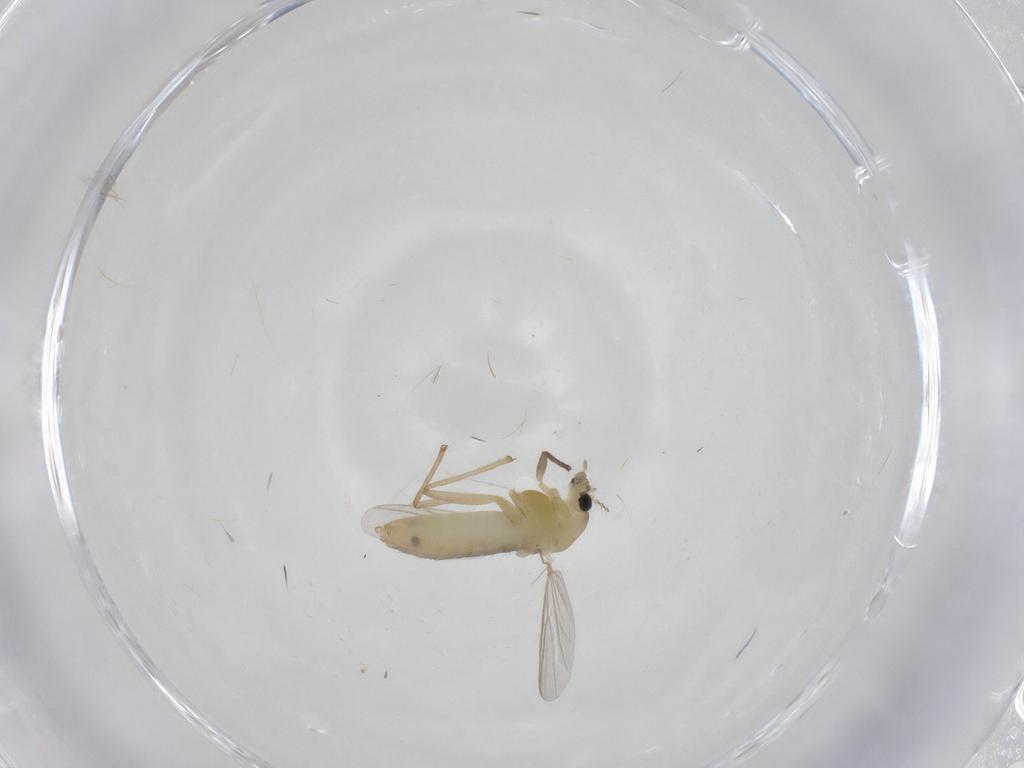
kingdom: Animalia
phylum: Arthropoda
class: Insecta
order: Diptera
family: Chironomidae
